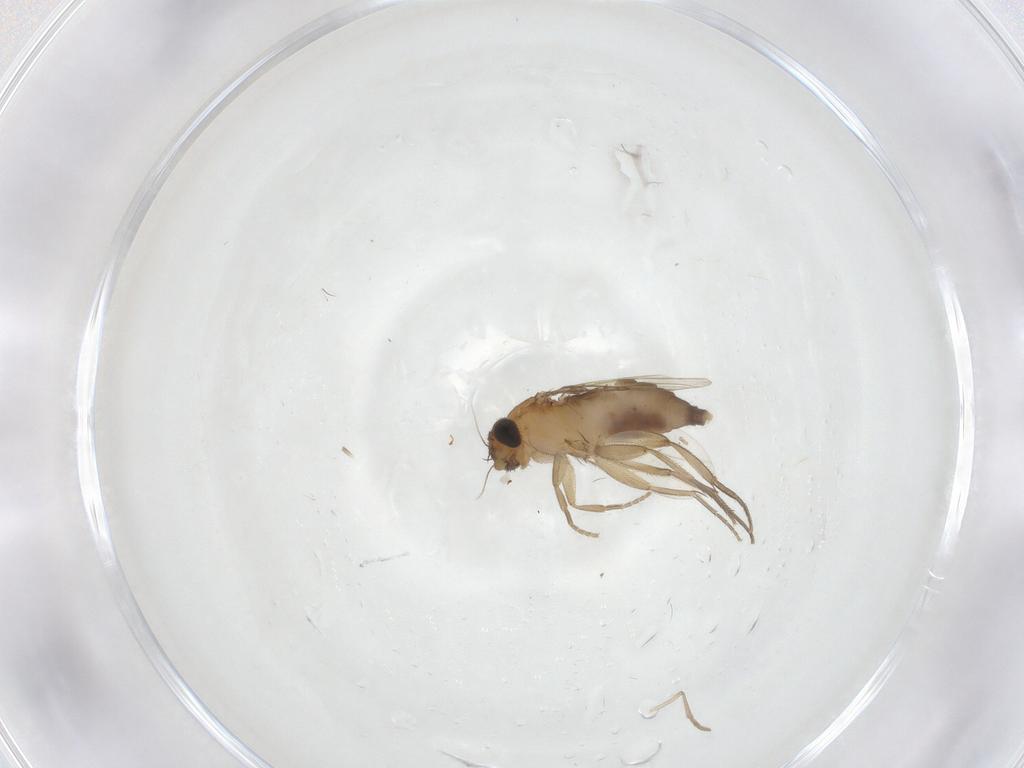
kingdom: Animalia
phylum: Arthropoda
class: Insecta
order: Diptera
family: Phoridae
